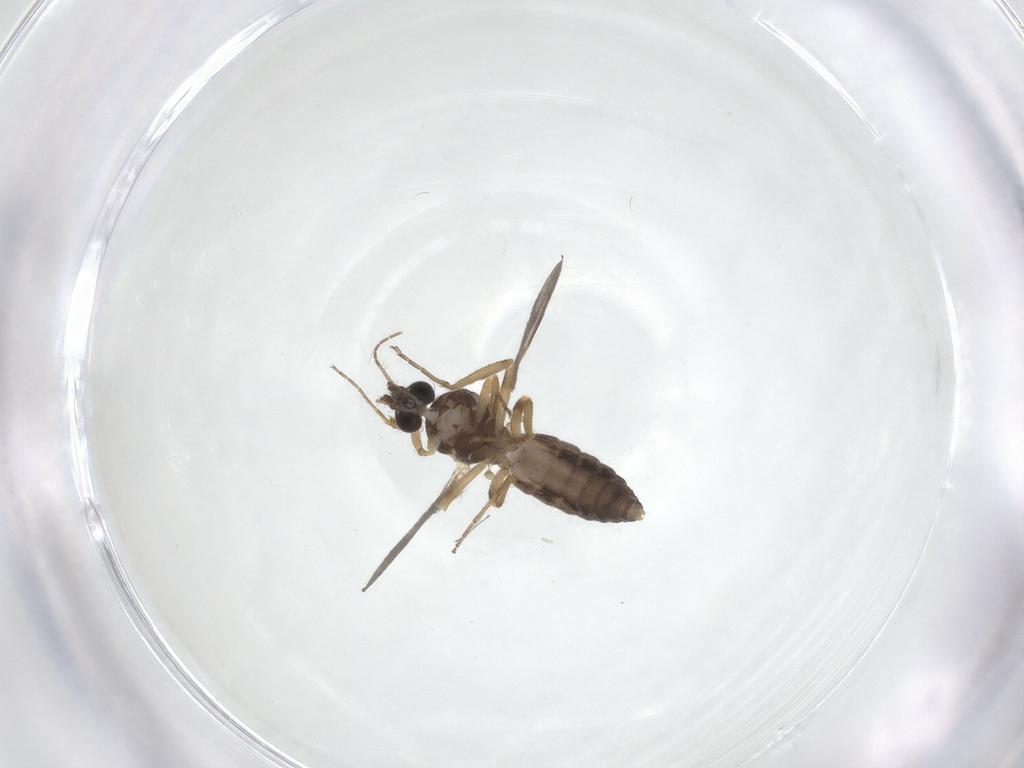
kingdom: Animalia
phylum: Arthropoda
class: Insecta
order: Diptera
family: Ceratopogonidae
